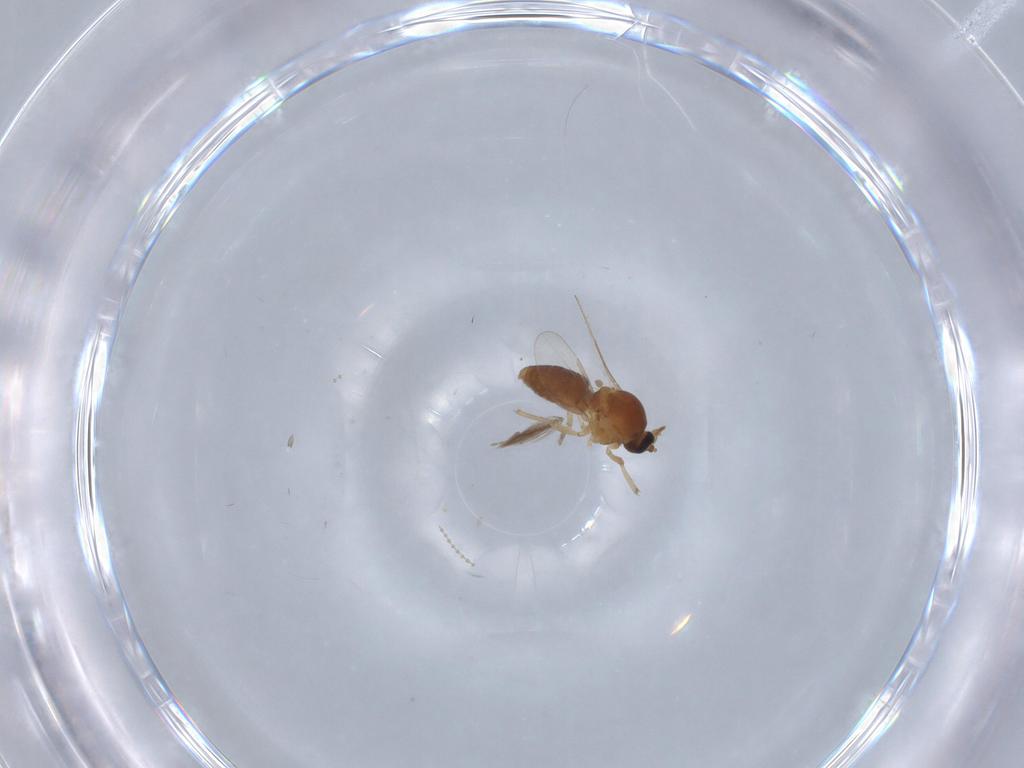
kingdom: Animalia
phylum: Arthropoda
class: Insecta
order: Diptera
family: Ceratopogonidae
